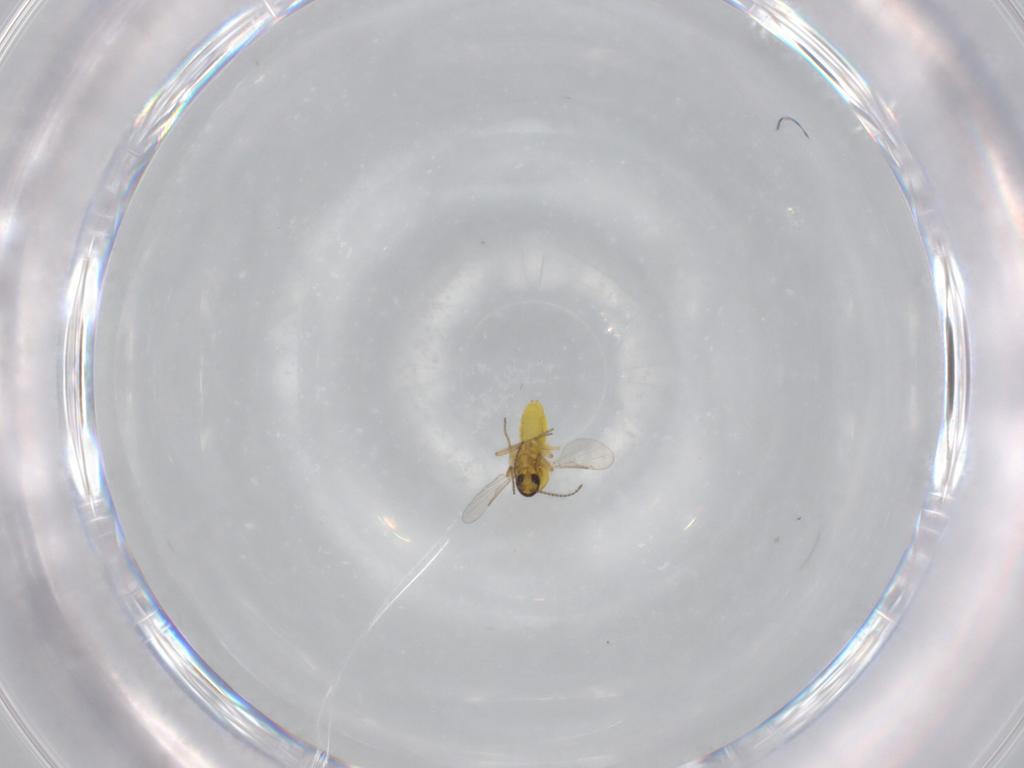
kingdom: Animalia
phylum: Arthropoda
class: Insecta
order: Diptera
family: Ceratopogonidae
